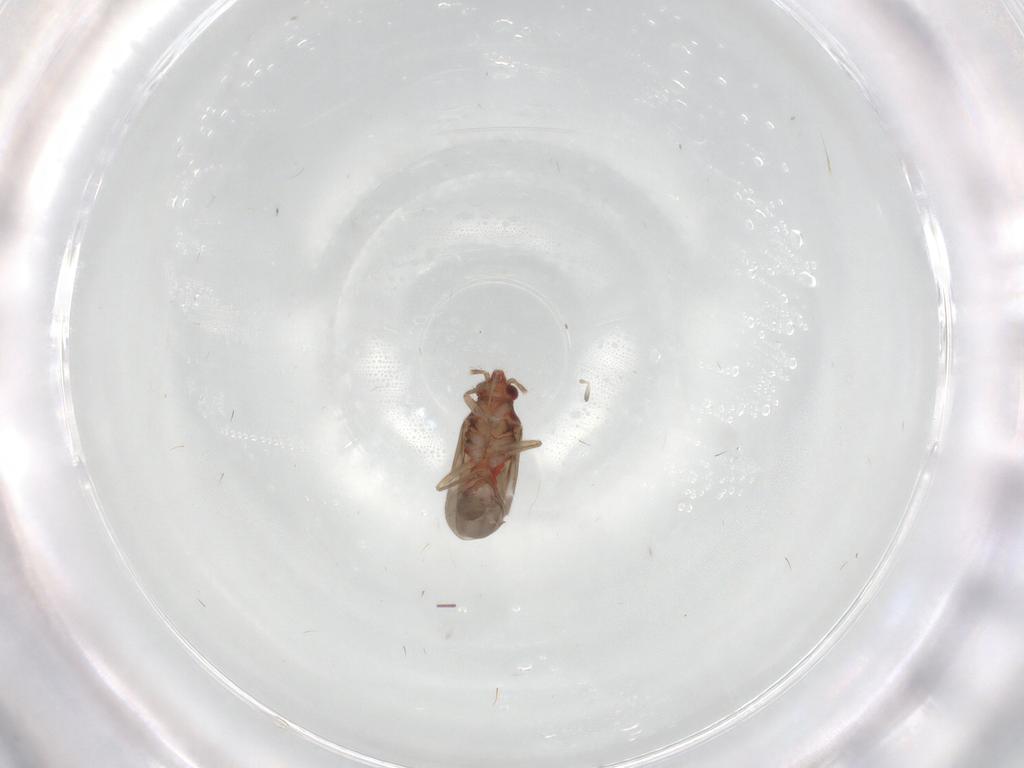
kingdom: Animalia
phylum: Arthropoda
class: Insecta
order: Hemiptera
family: Ceratocombidae
